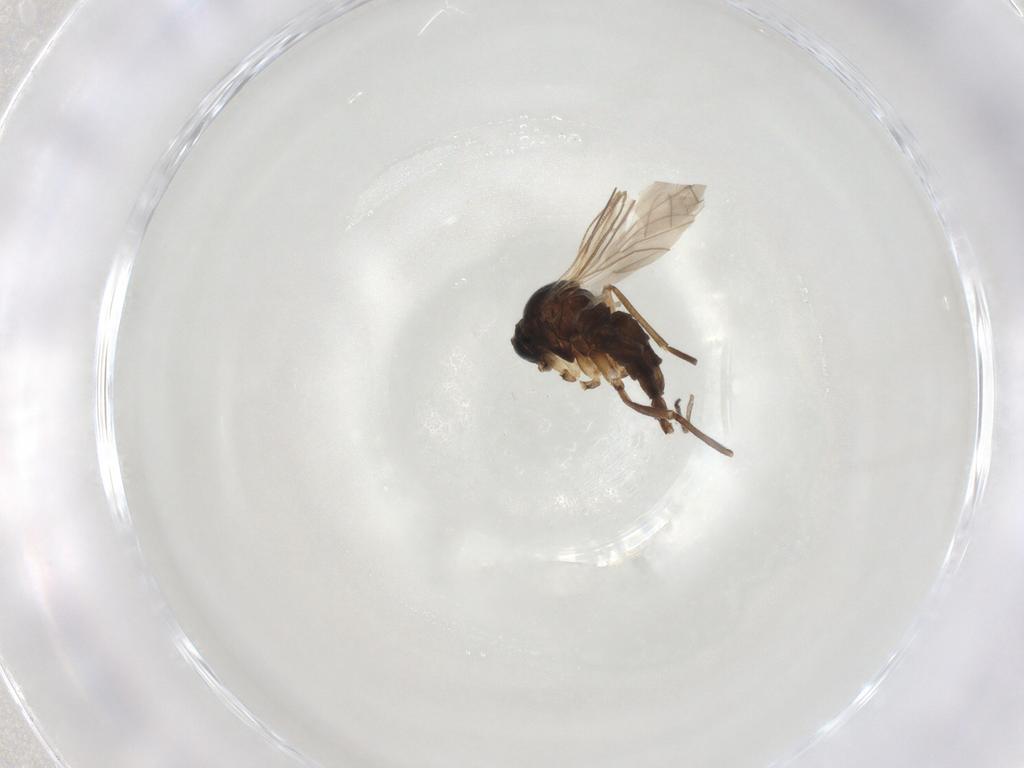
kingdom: Animalia
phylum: Arthropoda
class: Insecta
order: Diptera
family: Sciaridae
